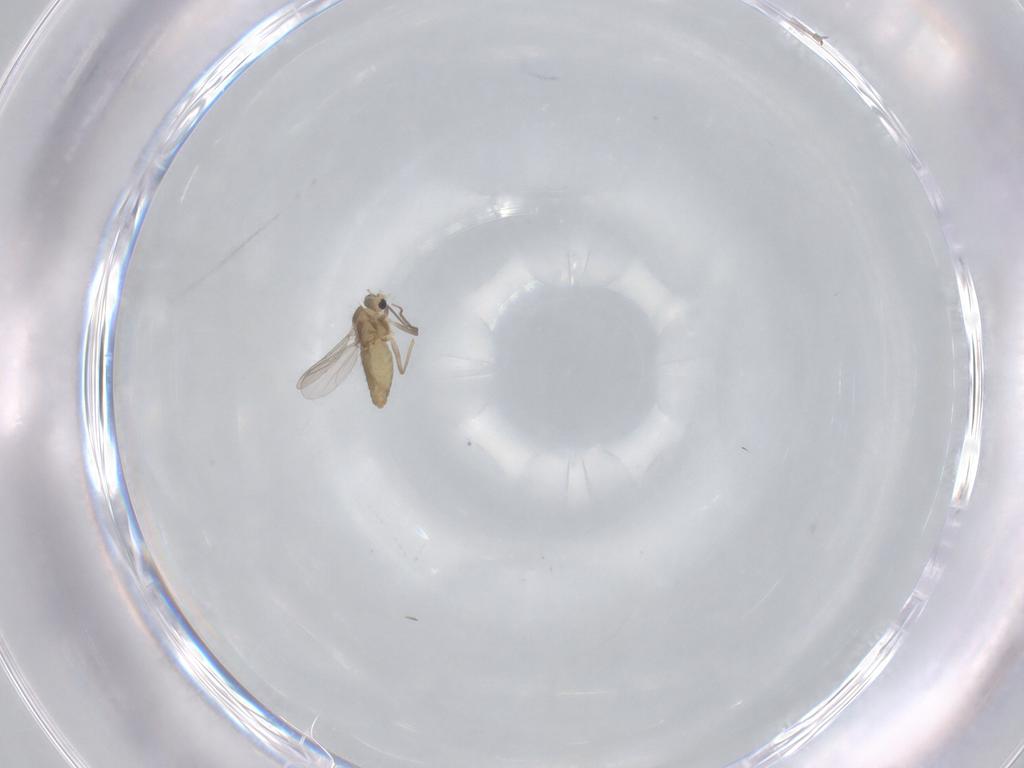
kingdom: Animalia
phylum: Arthropoda
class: Insecta
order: Diptera
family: Chironomidae
